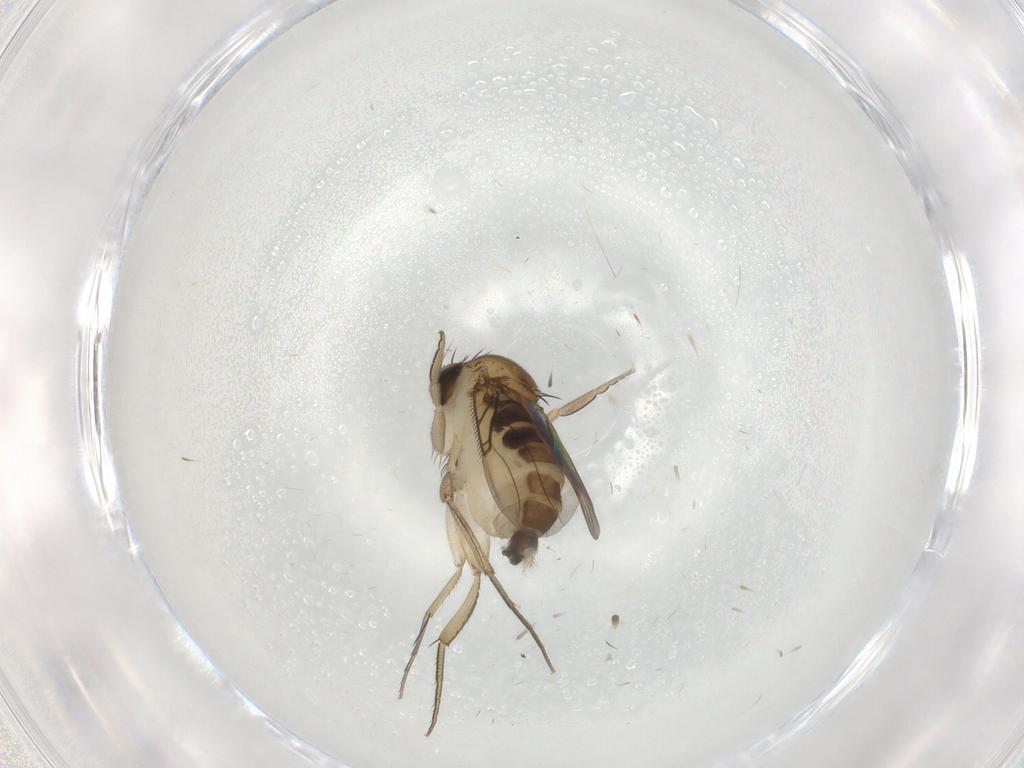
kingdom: Animalia
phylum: Arthropoda
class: Insecta
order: Diptera
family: Phoridae
